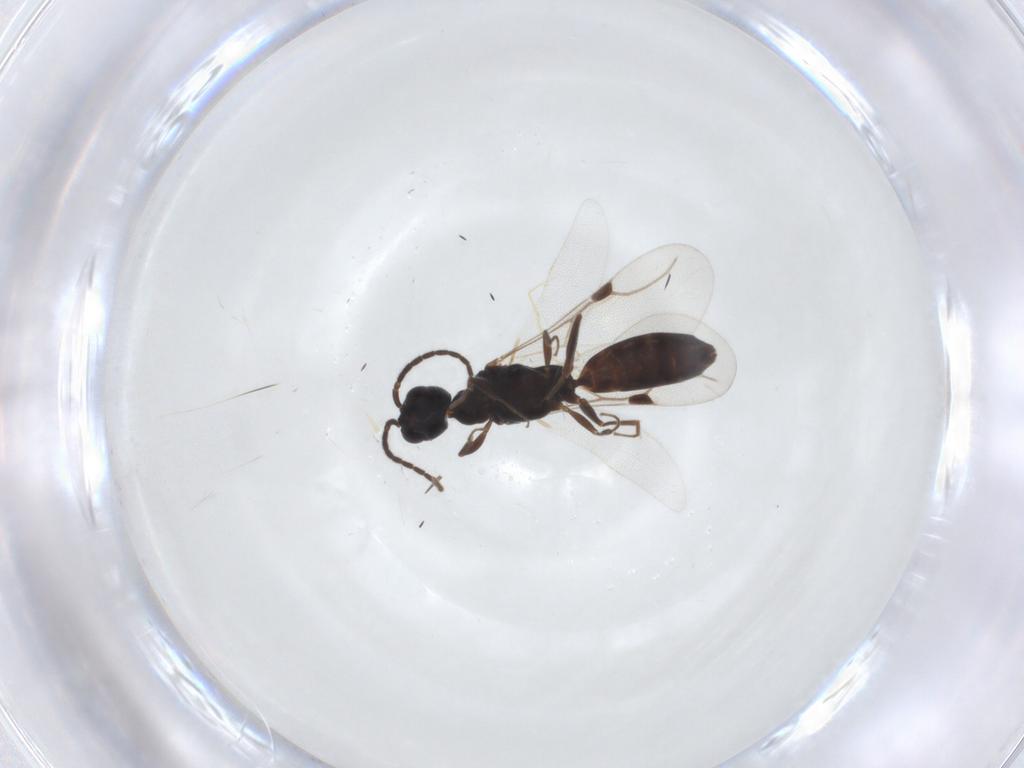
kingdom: Animalia
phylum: Arthropoda
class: Insecta
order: Hymenoptera
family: Bethylidae
